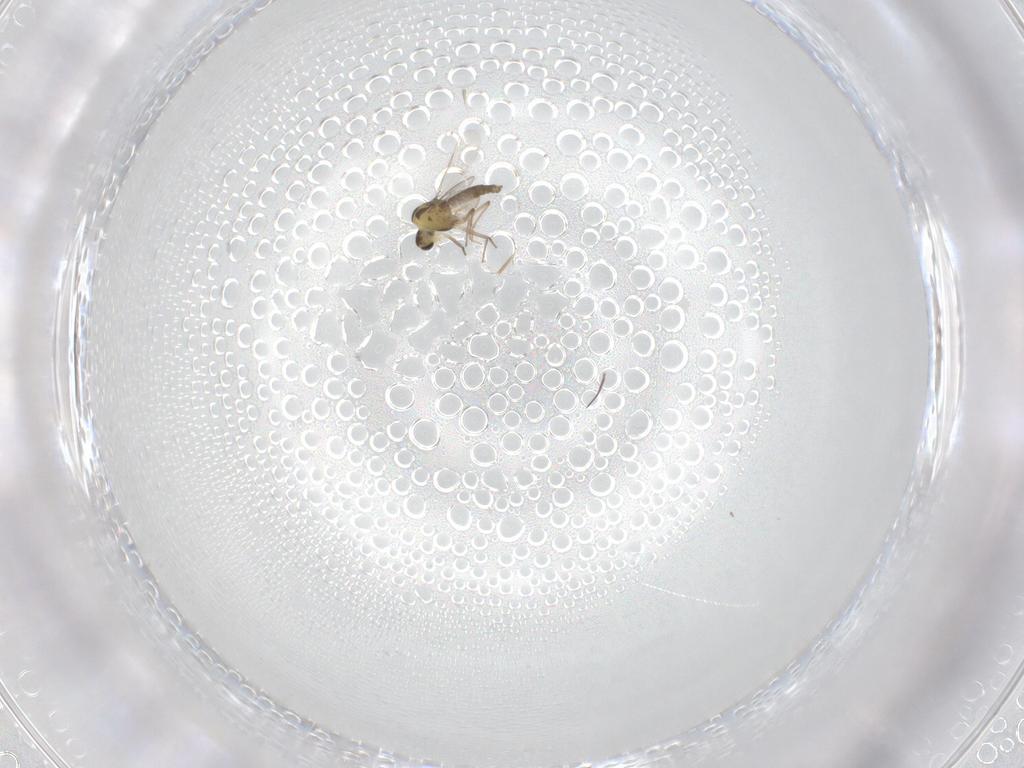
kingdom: Animalia
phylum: Arthropoda
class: Insecta
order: Diptera
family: Chironomidae
